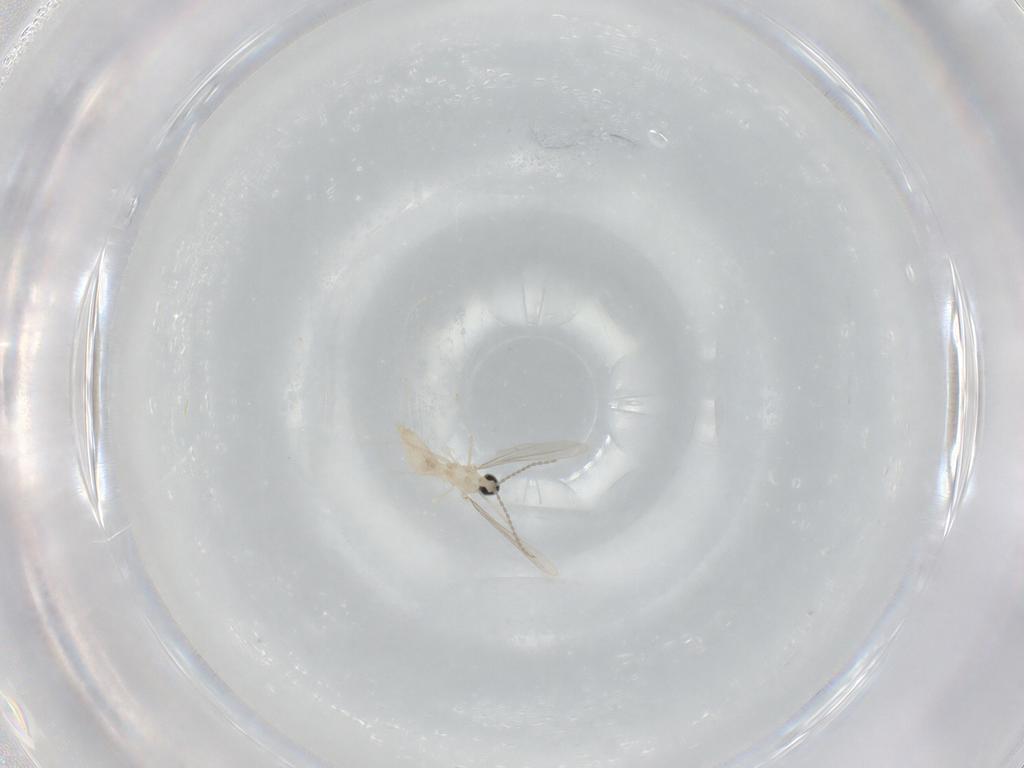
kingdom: Animalia
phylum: Arthropoda
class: Insecta
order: Diptera
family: Cecidomyiidae
